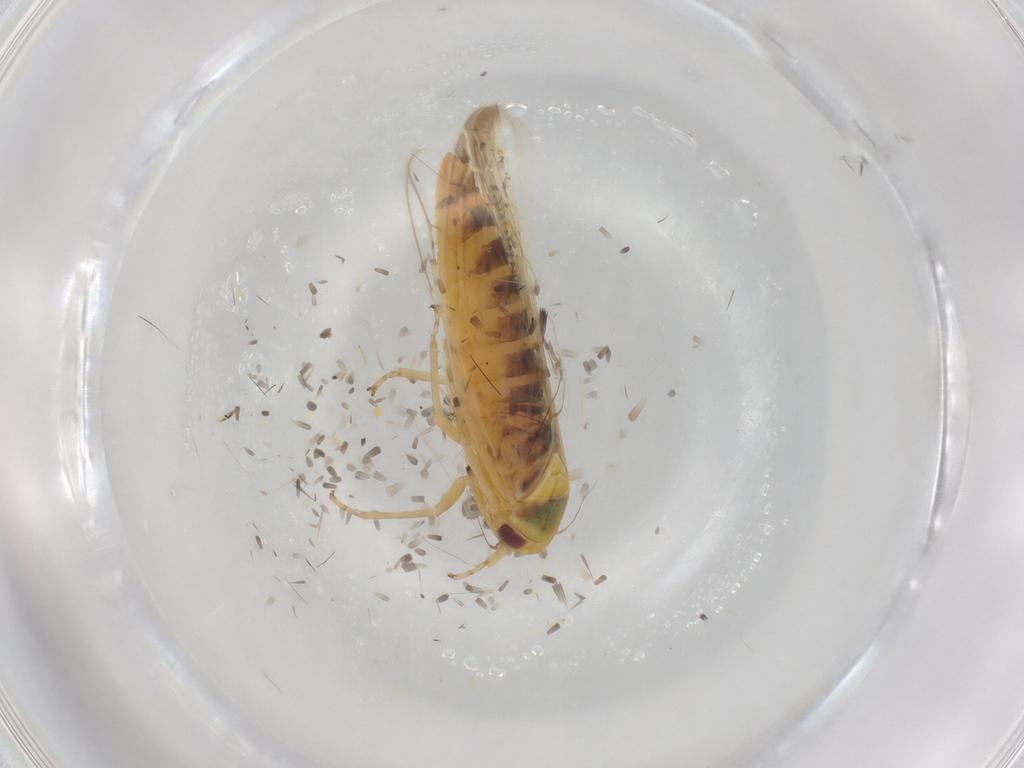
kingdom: Animalia
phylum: Arthropoda
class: Insecta
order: Hemiptera
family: Cicadellidae
